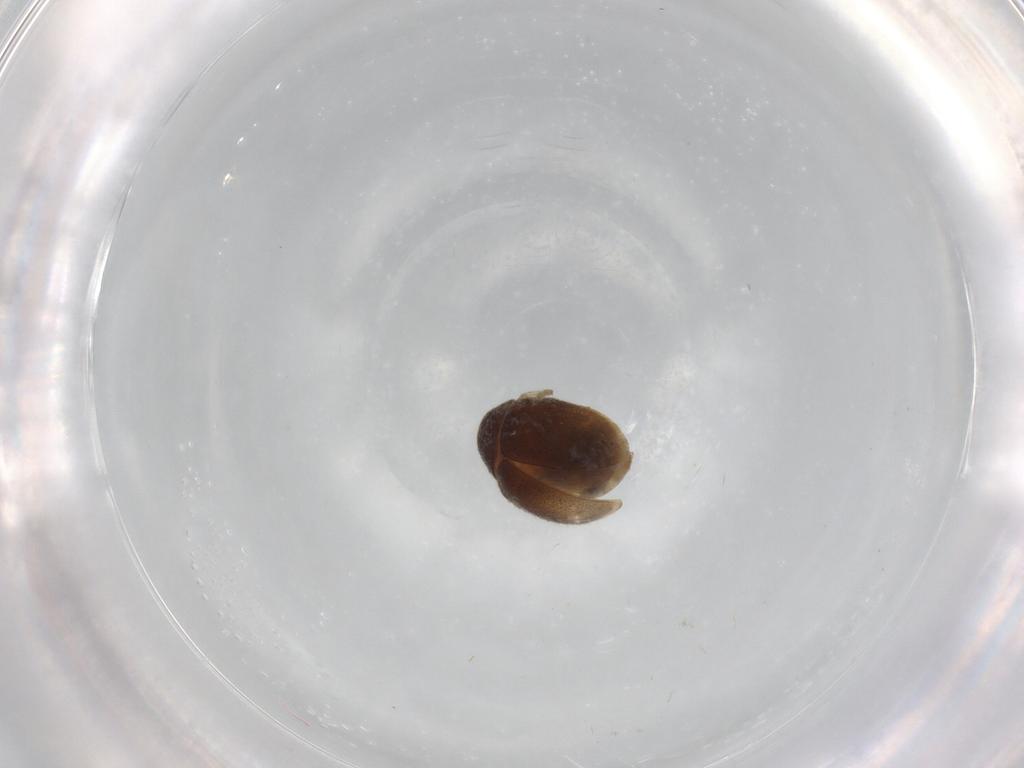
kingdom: Animalia
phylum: Arthropoda
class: Insecta
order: Coleoptera
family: Coccinellidae
